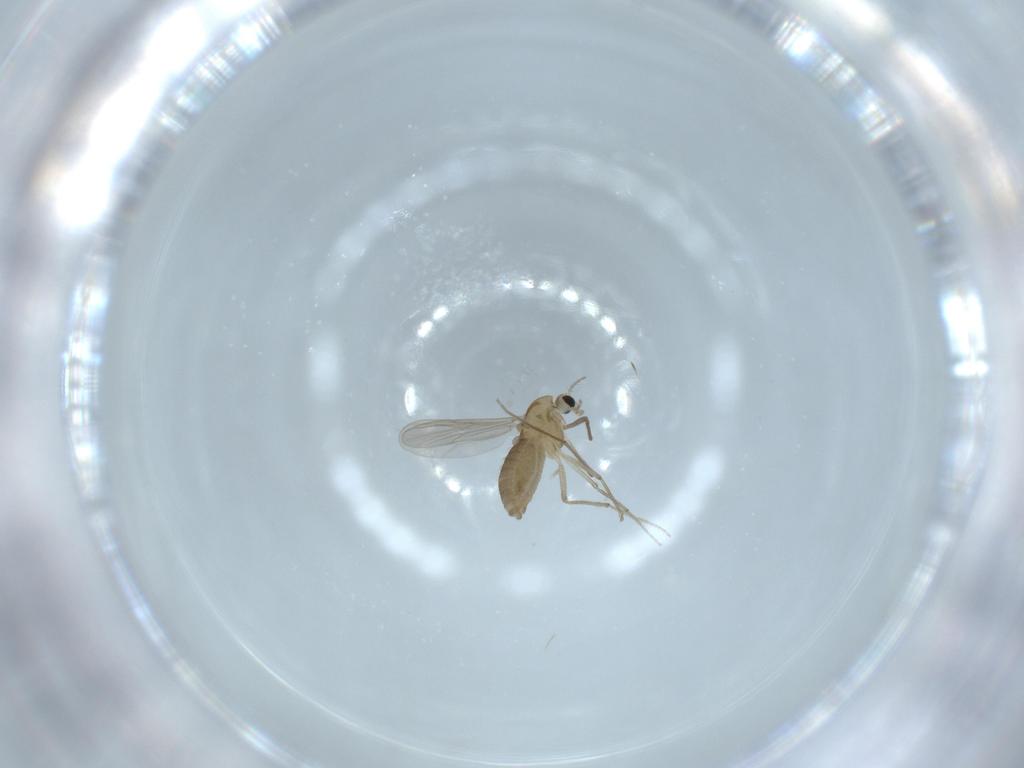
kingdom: Animalia
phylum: Arthropoda
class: Insecta
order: Diptera
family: Chironomidae
